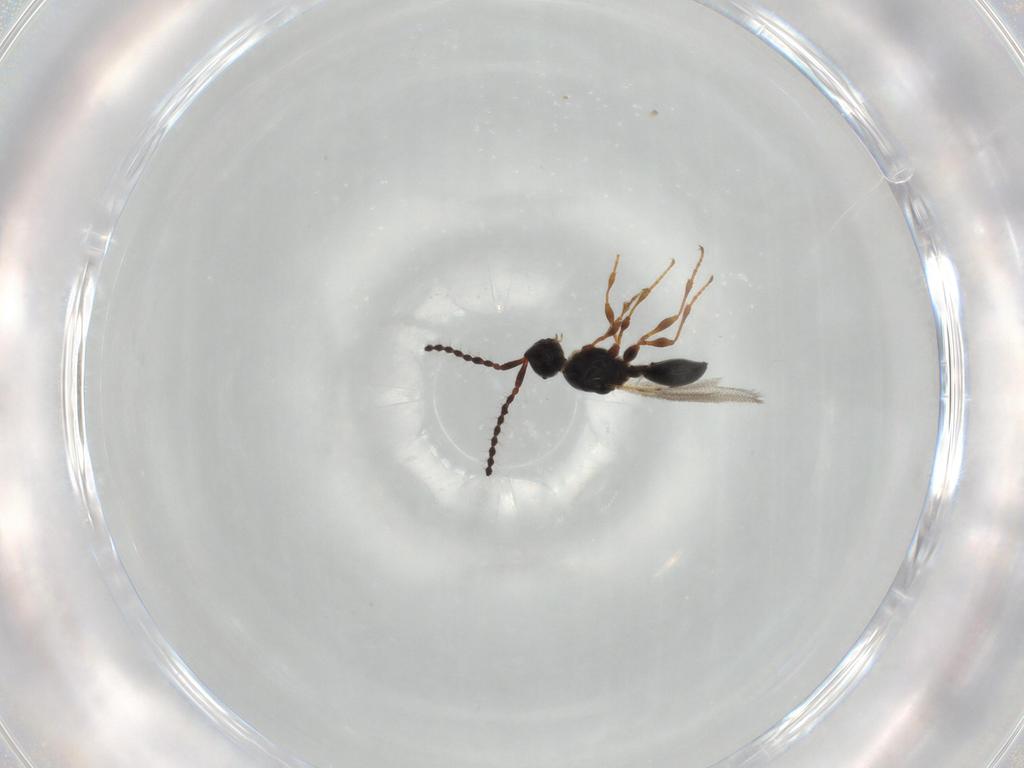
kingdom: Animalia
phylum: Arthropoda
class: Insecta
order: Hymenoptera
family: Diapriidae
